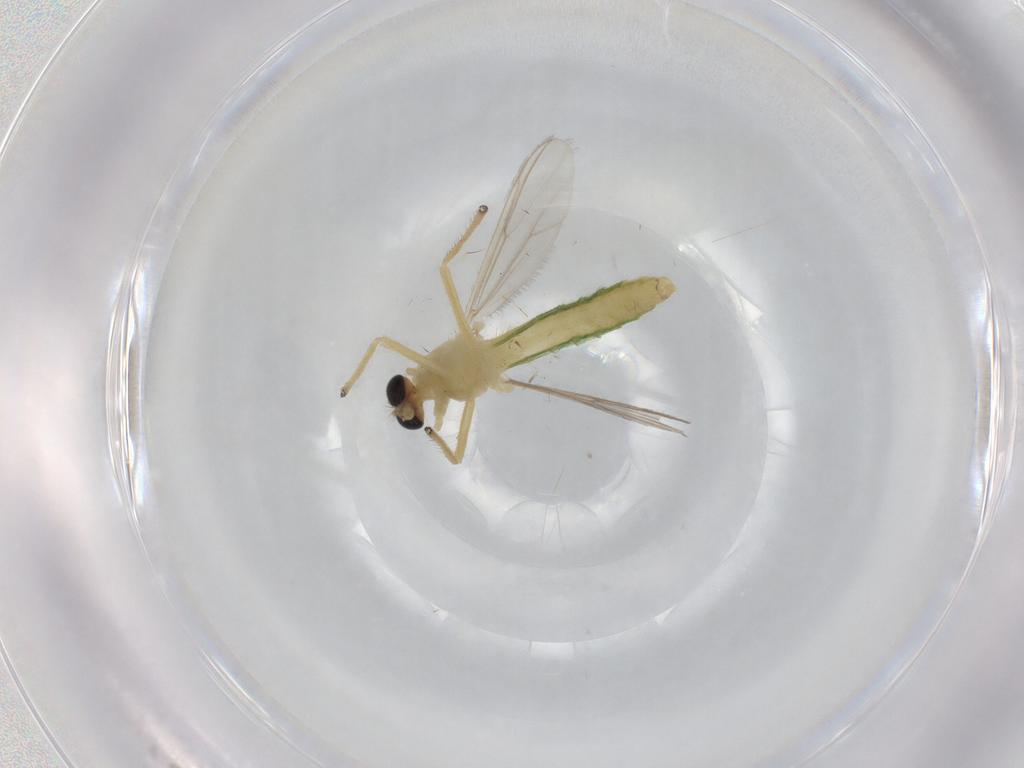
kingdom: Animalia
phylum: Arthropoda
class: Insecta
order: Diptera
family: Chironomidae
